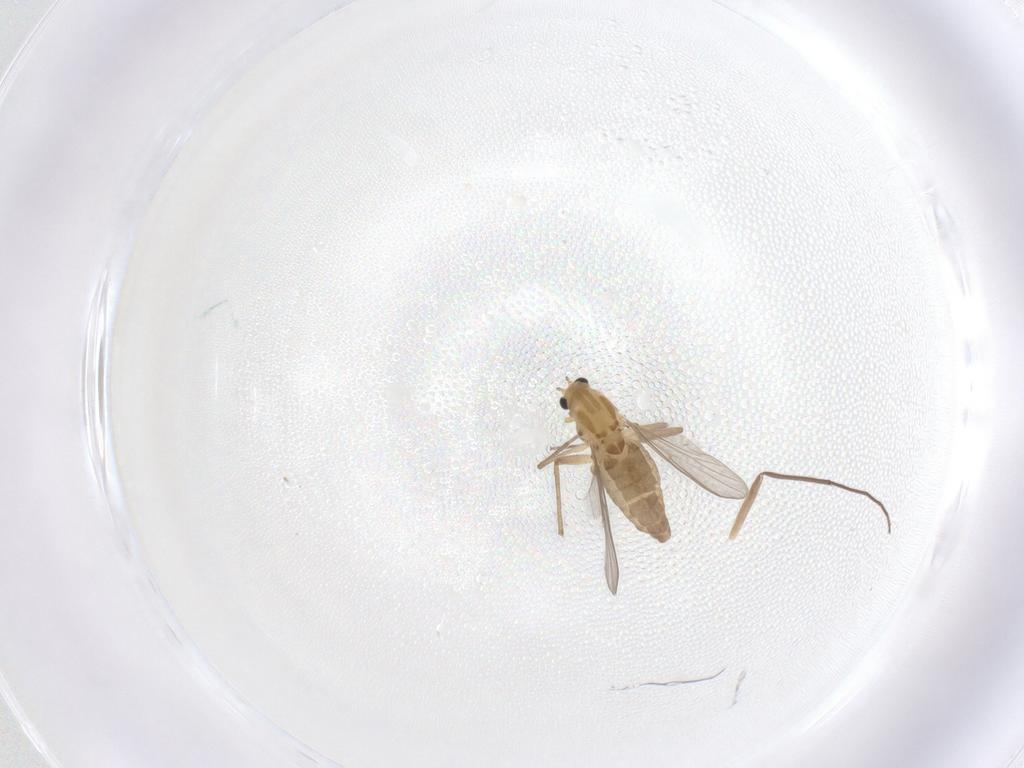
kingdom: Animalia
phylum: Arthropoda
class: Insecta
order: Diptera
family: Chironomidae
